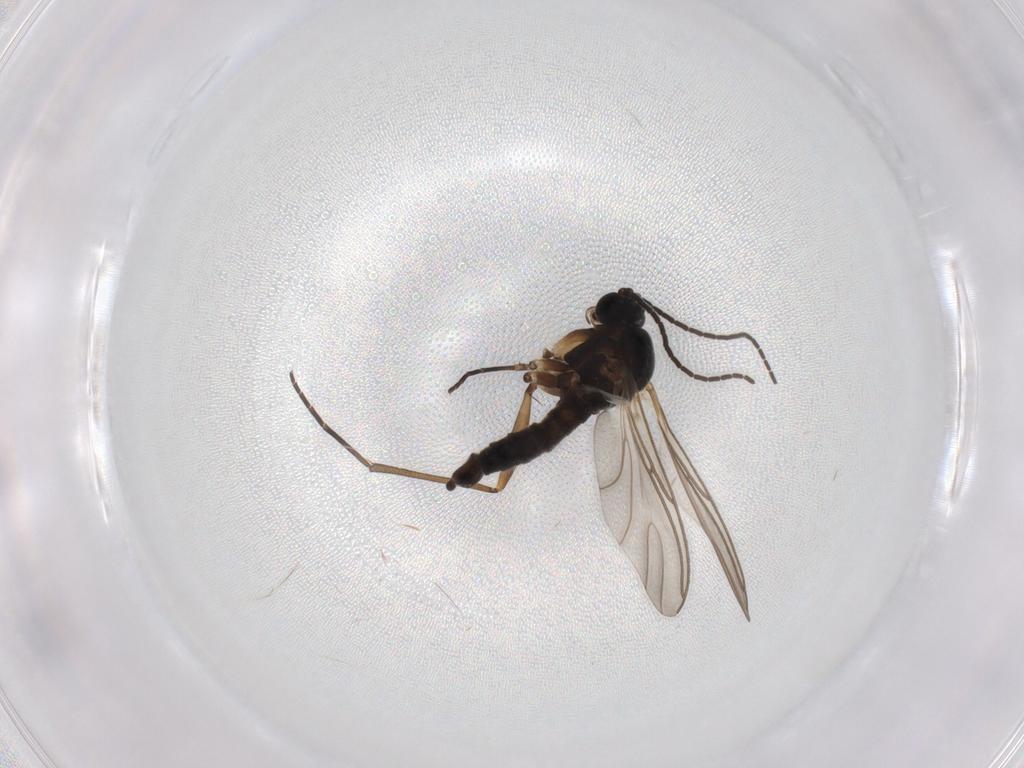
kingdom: Animalia
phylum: Arthropoda
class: Insecta
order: Diptera
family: Sciaridae
